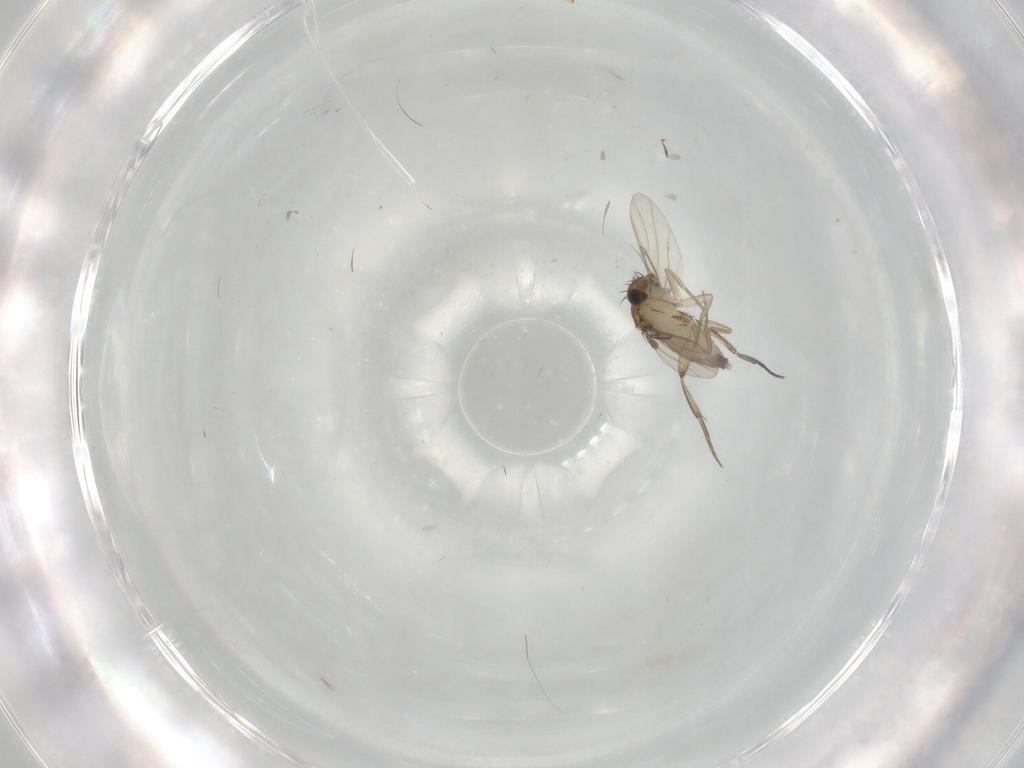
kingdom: Animalia
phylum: Arthropoda
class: Insecta
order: Diptera
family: Phoridae
